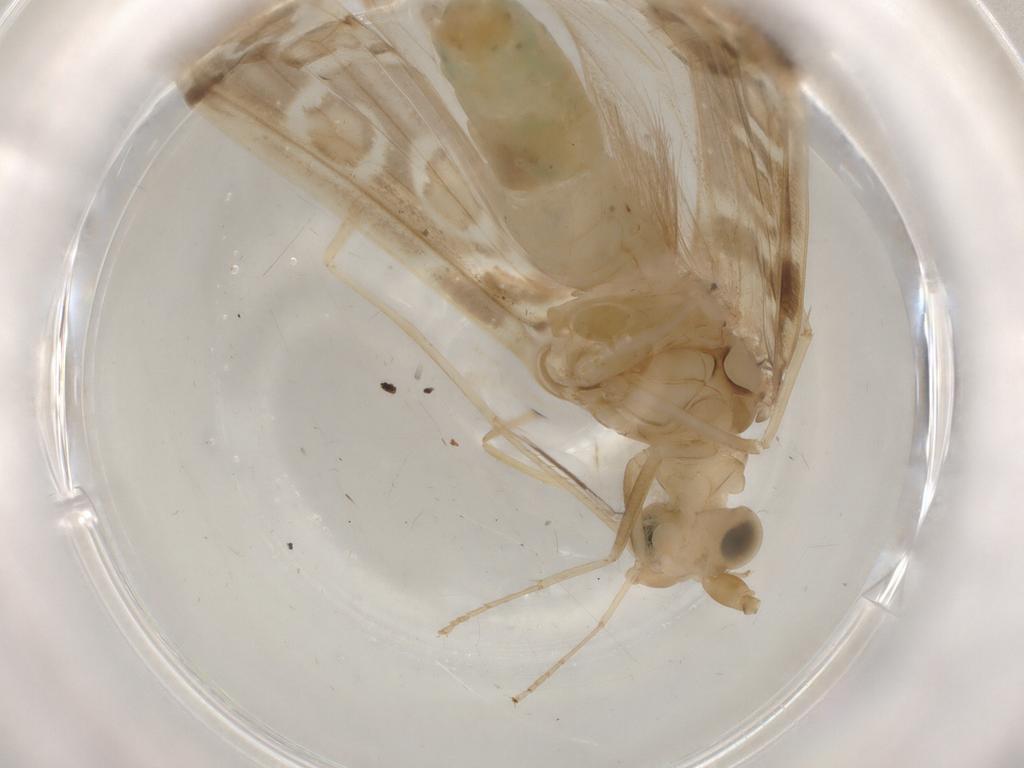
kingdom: Animalia
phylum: Arthropoda
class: Insecta
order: Trichoptera
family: Leptoceridae
